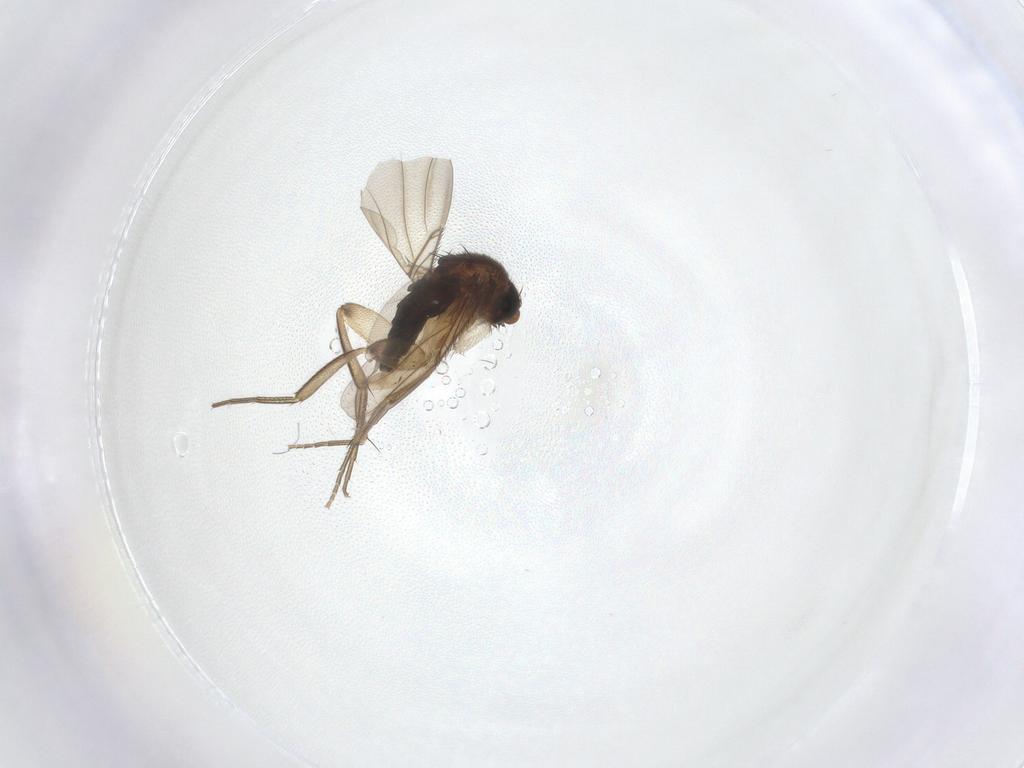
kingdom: Animalia
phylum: Arthropoda
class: Insecta
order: Diptera
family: Phoridae
